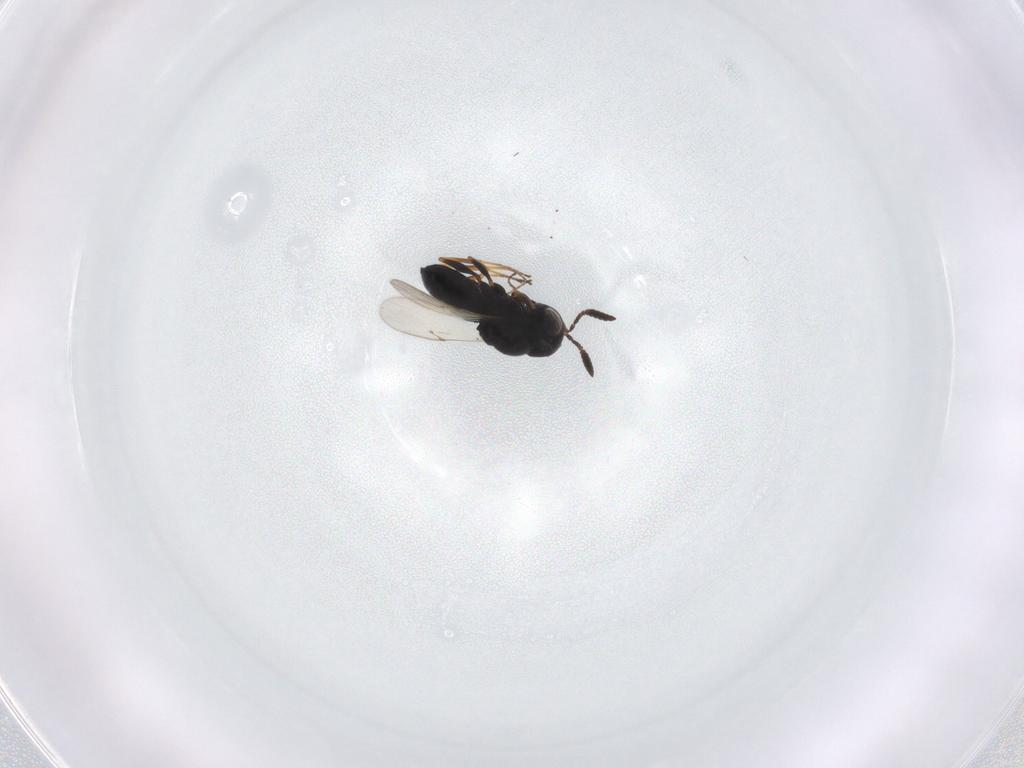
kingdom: Animalia
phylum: Arthropoda
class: Insecta
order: Hymenoptera
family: Scelionidae
